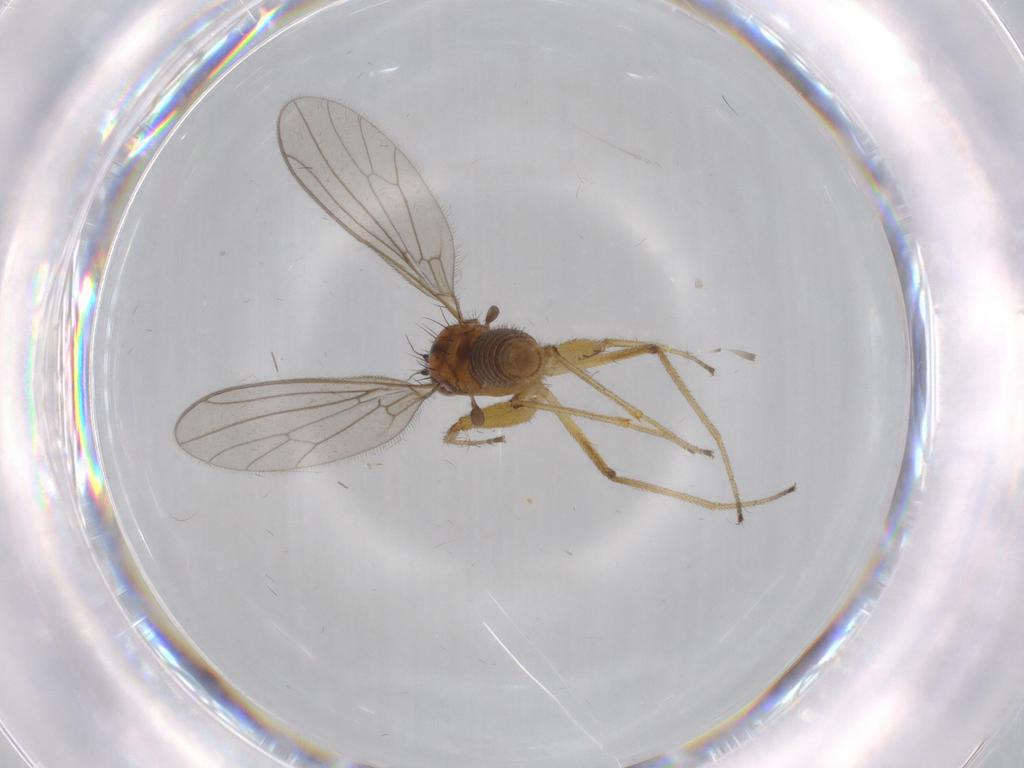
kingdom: Animalia
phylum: Arthropoda
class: Insecta
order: Diptera
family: Empididae
